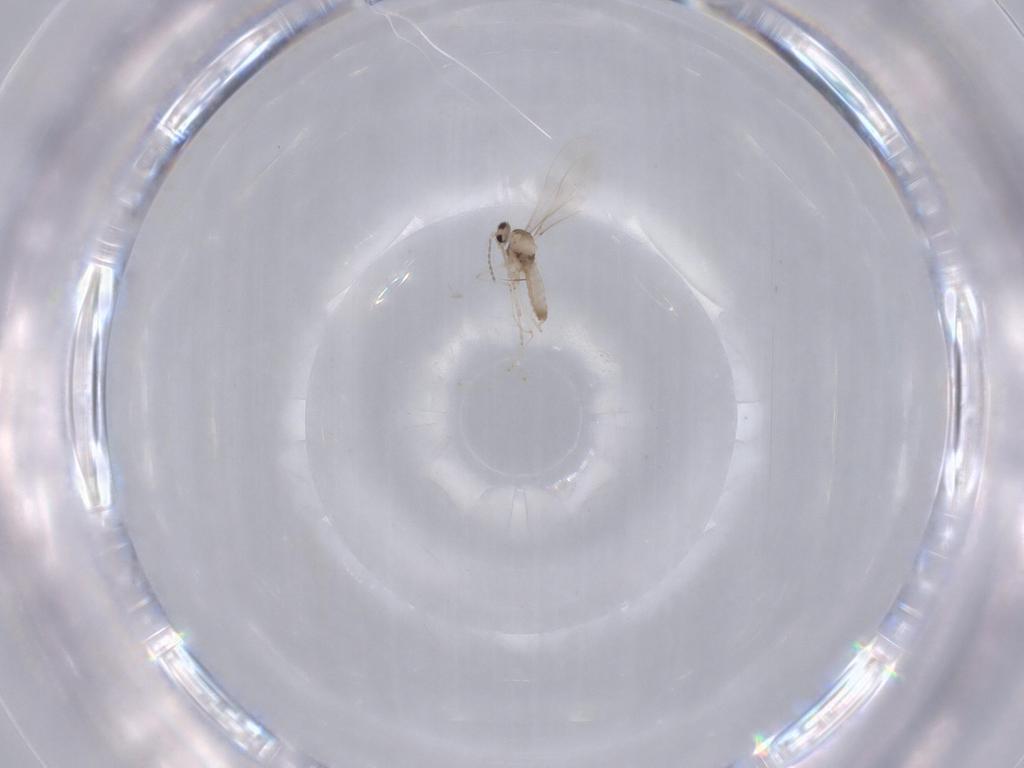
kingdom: Animalia
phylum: Arthropoda
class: Insecta
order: Diptera
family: Cecidomyiidae
